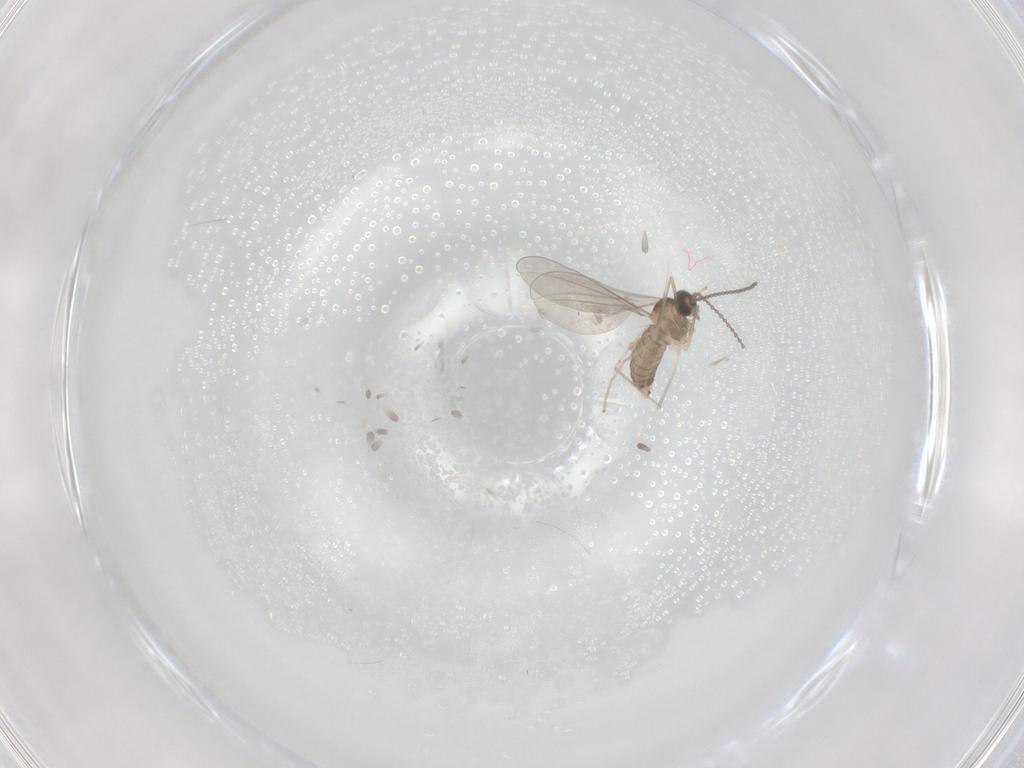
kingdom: Animalia
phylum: Arthropoda
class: Insecta
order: Diptera
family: Cecidomyiidae
